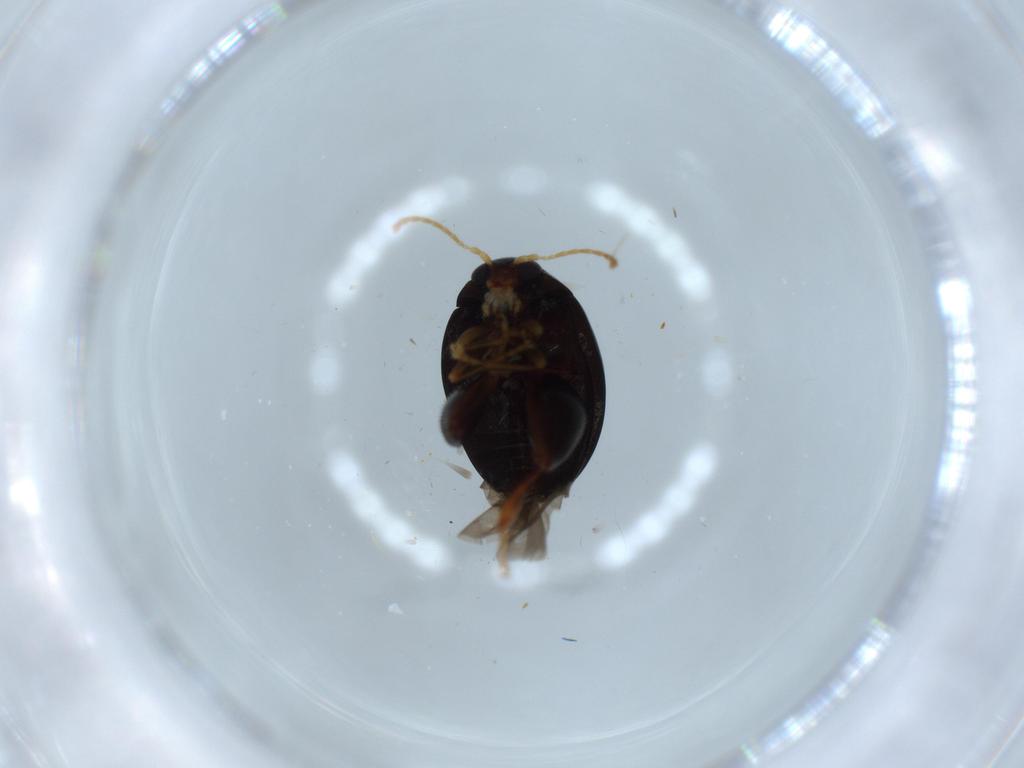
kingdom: Animalia
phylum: Arthropoda
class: Insecta
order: Coleoptera
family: Chrysomelidae
